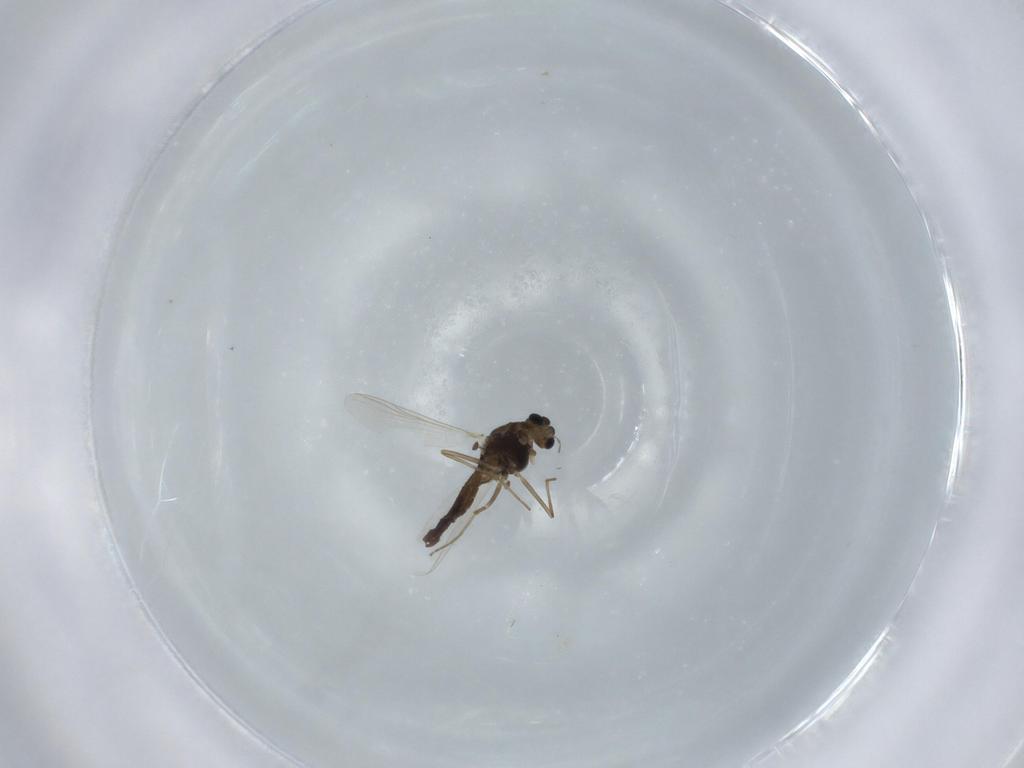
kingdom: Animalia
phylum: Arthropoda
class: Insecta
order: Diptera
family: Chironomidae
